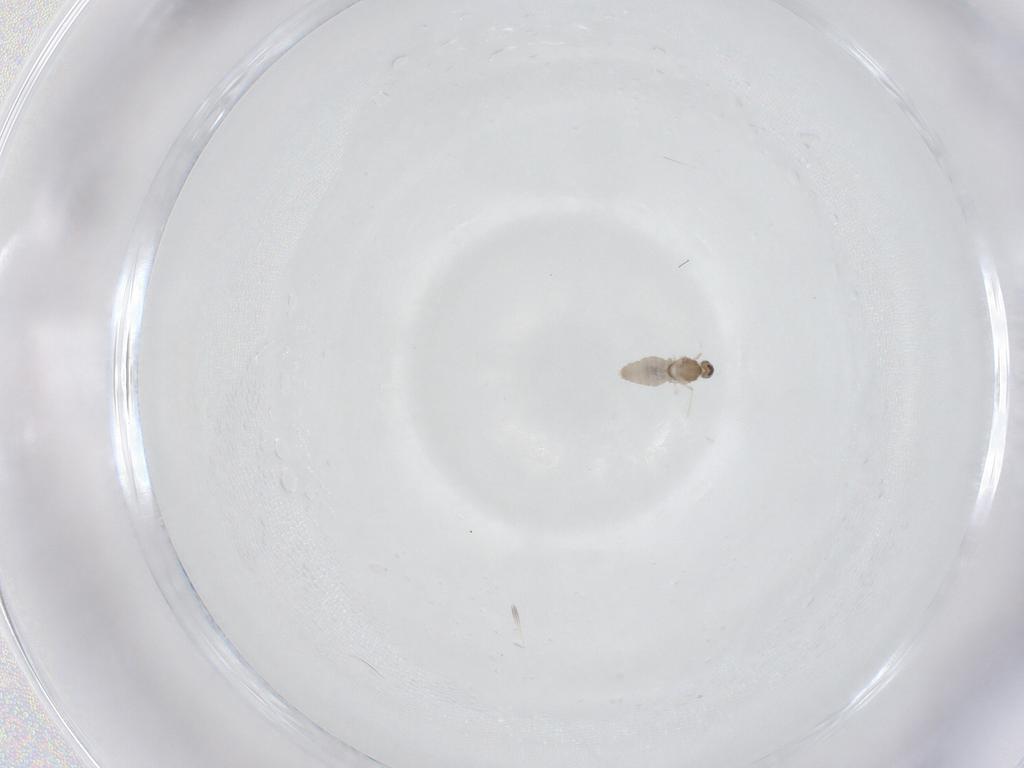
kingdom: Animalia
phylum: Arthropoda
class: Insecta
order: Diptera
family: Cecidomyiidae
